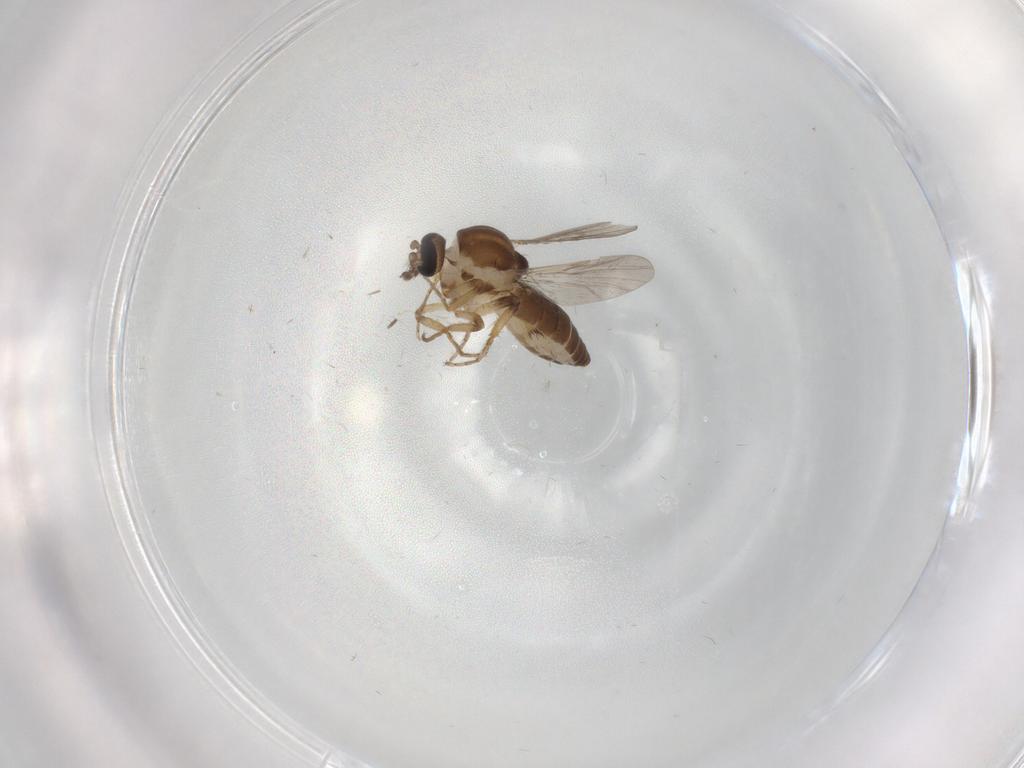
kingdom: Animalia
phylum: Arthropoda
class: Insecta
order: Diptera
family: Ceratopogonidae
